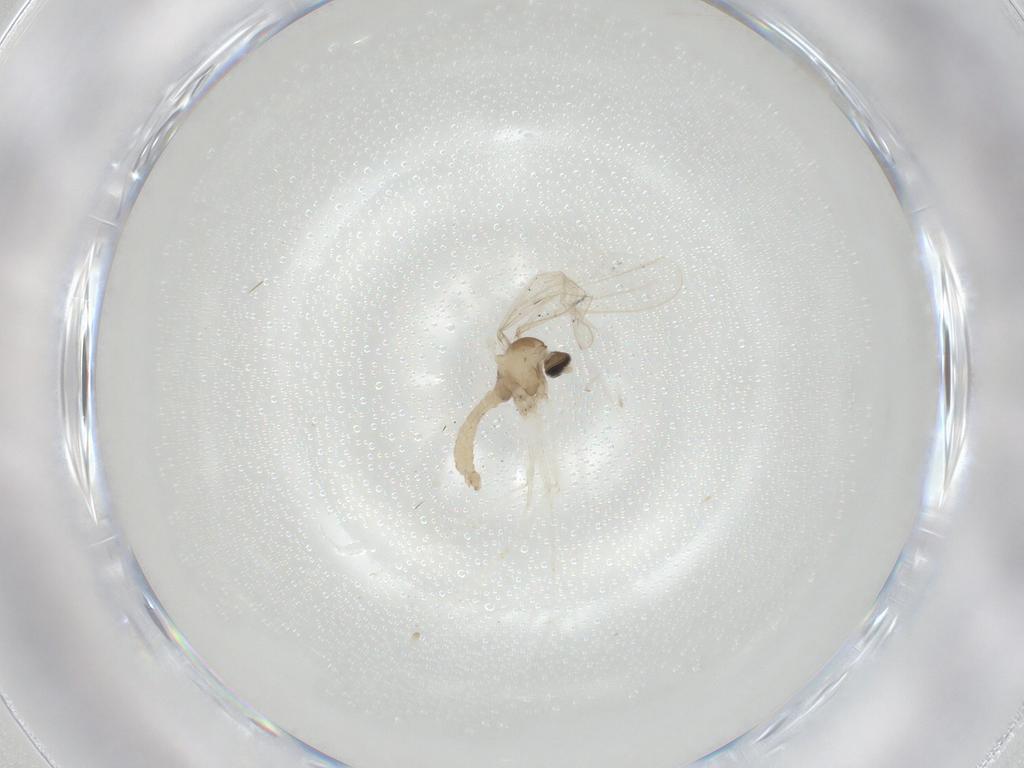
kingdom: Animalia
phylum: Arthropoda
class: Insecta
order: Diptera
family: Cecidomyiidae
